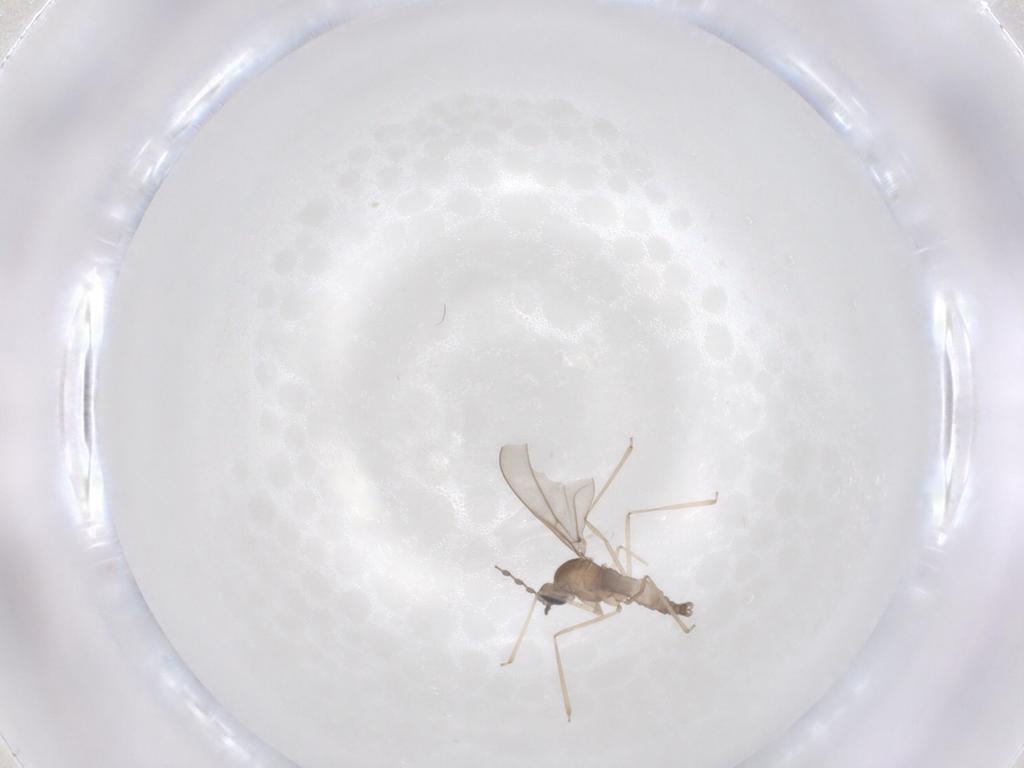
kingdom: Animalia
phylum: Arthropoda
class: Insecta
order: Diptera
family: Cecidomyiidae
